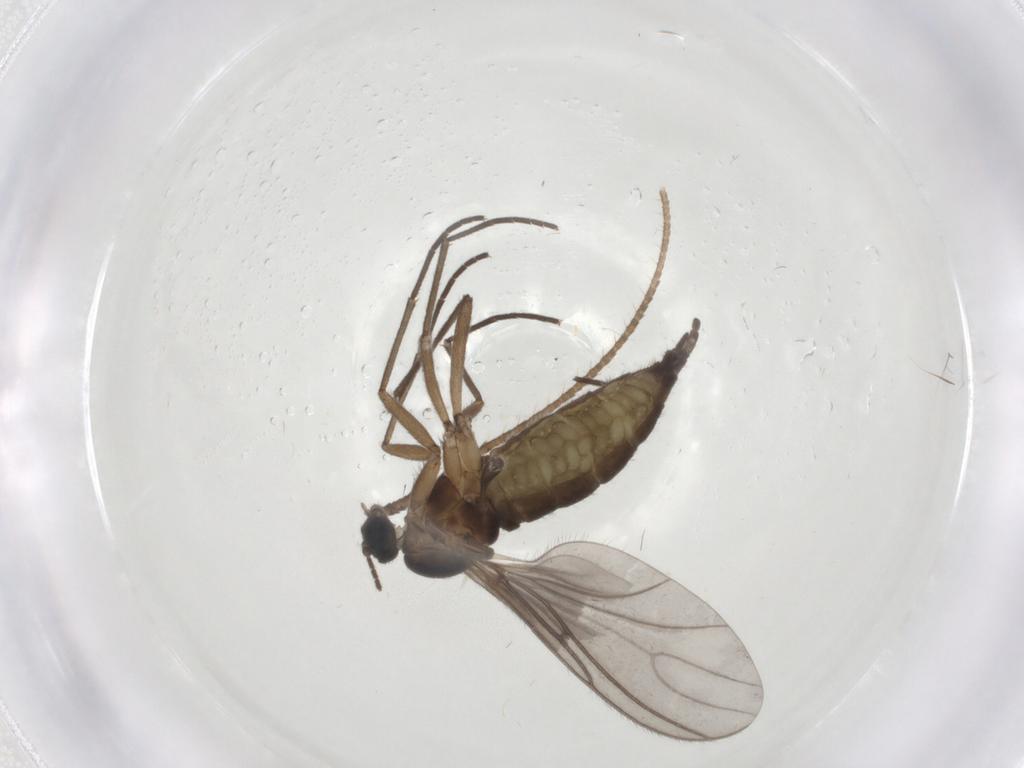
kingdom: Animalia
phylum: Arthropoda
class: Insecta
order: Diptera
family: Sciaridae
